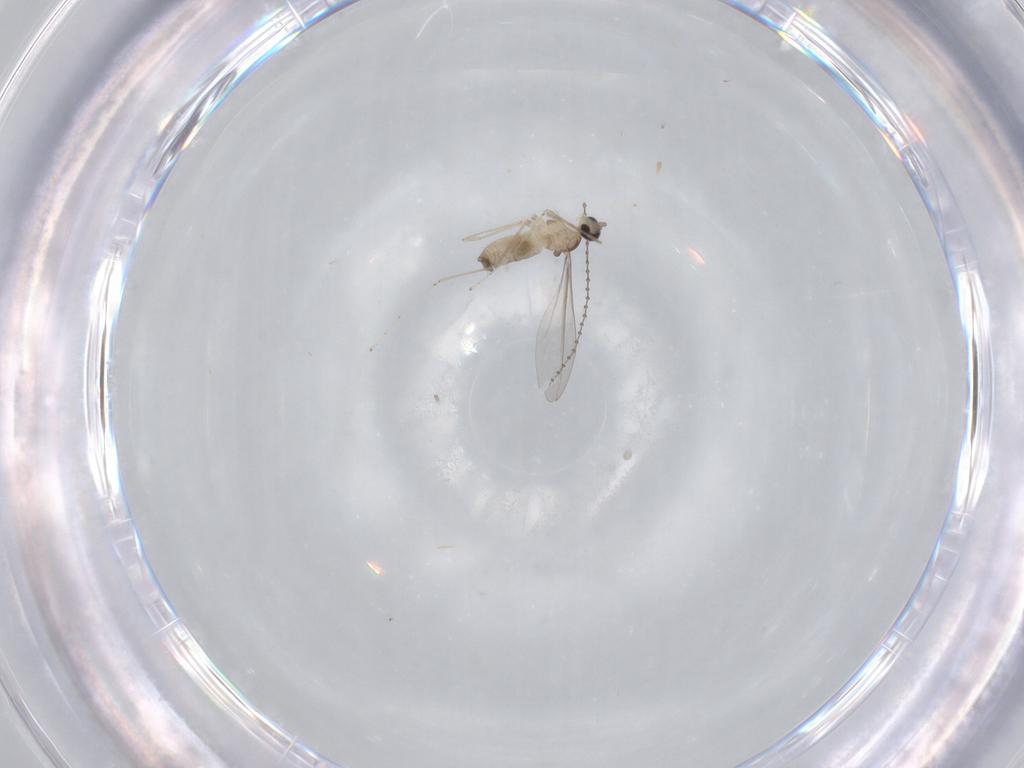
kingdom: Animalia
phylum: Arthropoda
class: Insecta
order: Diptera
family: Cecidomyiidae
